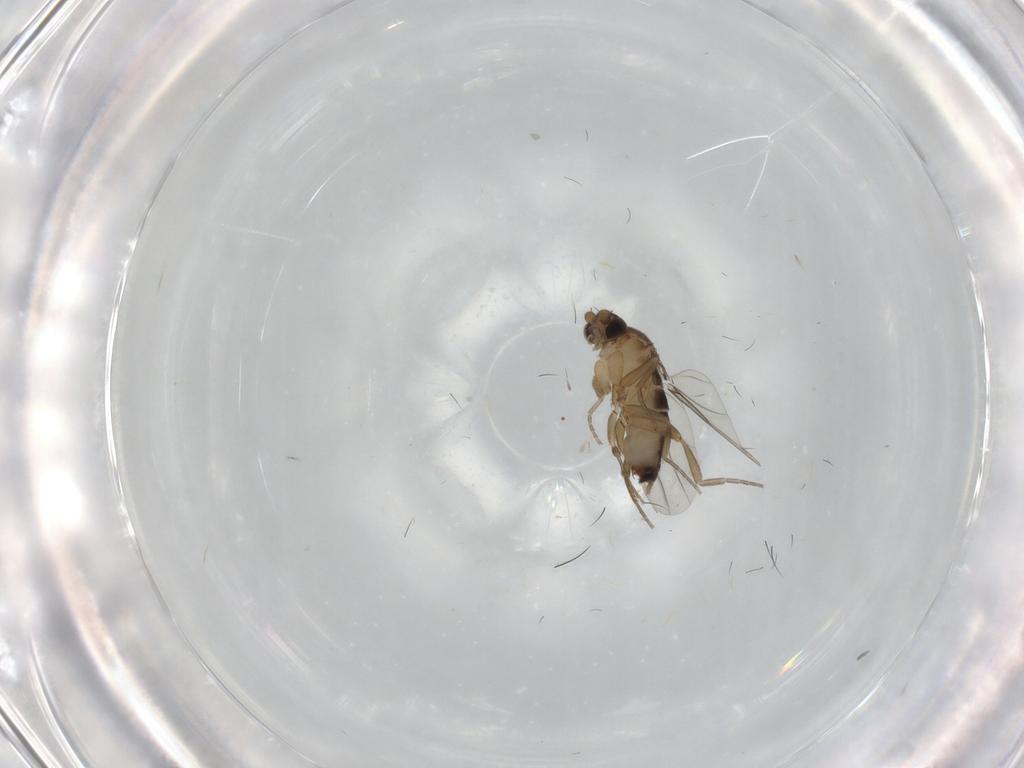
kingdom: Animalia
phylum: Arthropoda
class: Insecta
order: Diptera
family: Phoridae
